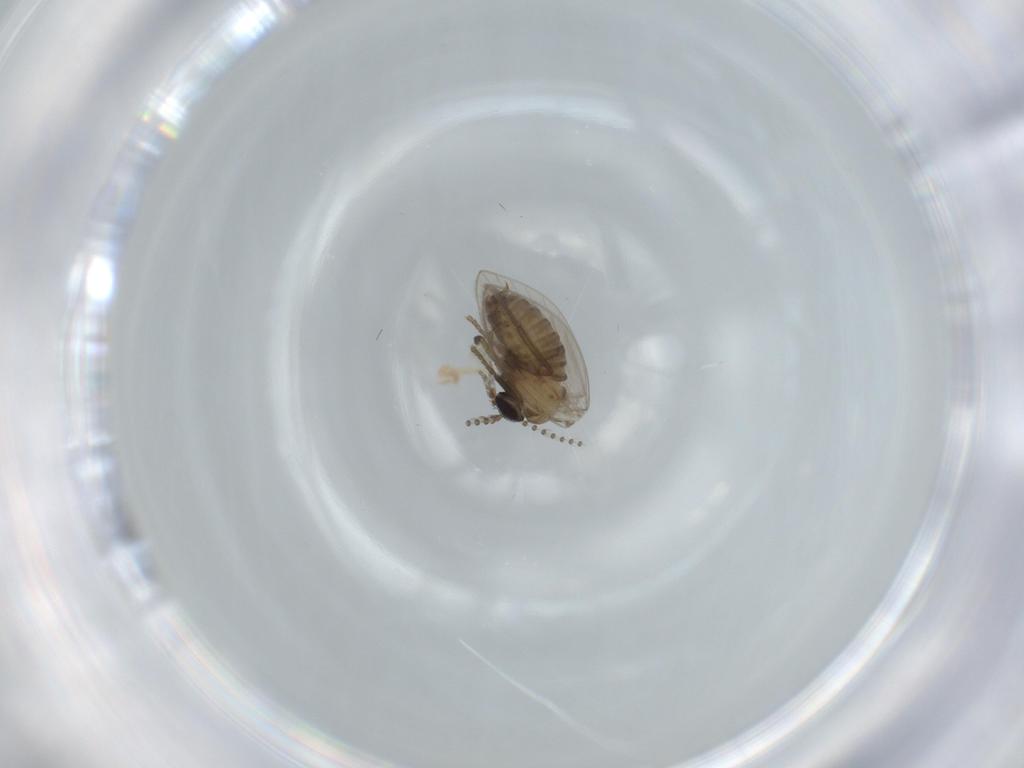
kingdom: Animalia
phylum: Arthropoda
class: Insecta
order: Diptera
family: Psychodidae
